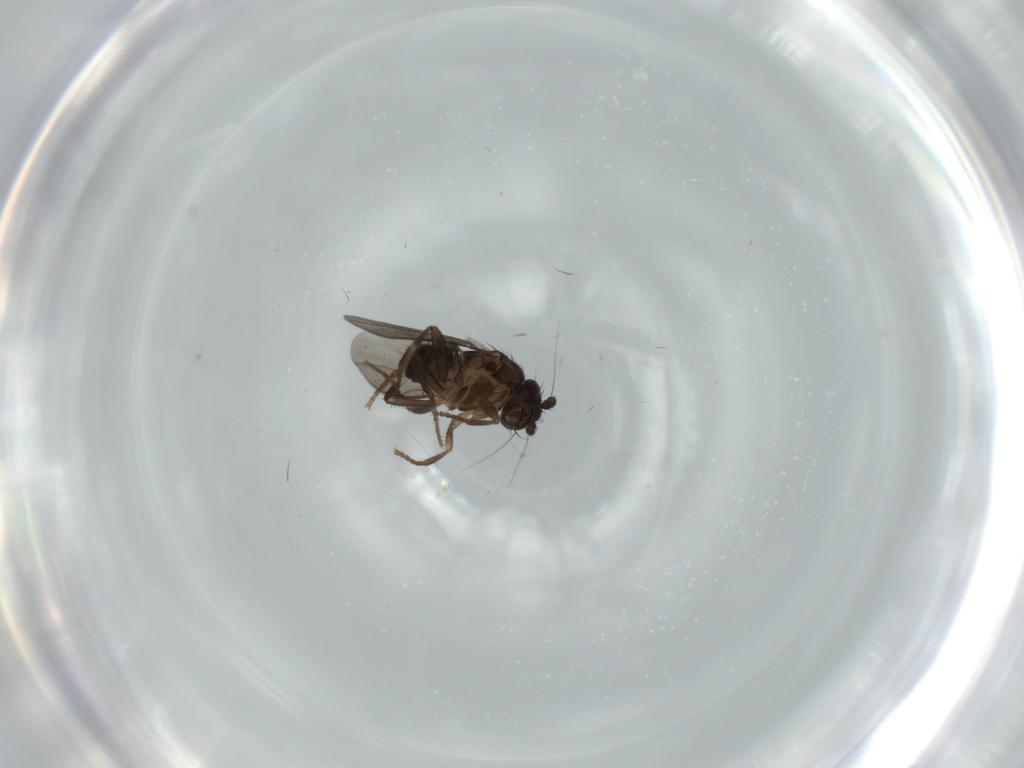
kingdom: Animalia
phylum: Arthropoda
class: Insecta
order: Diptera
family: Sphaeroceridae
